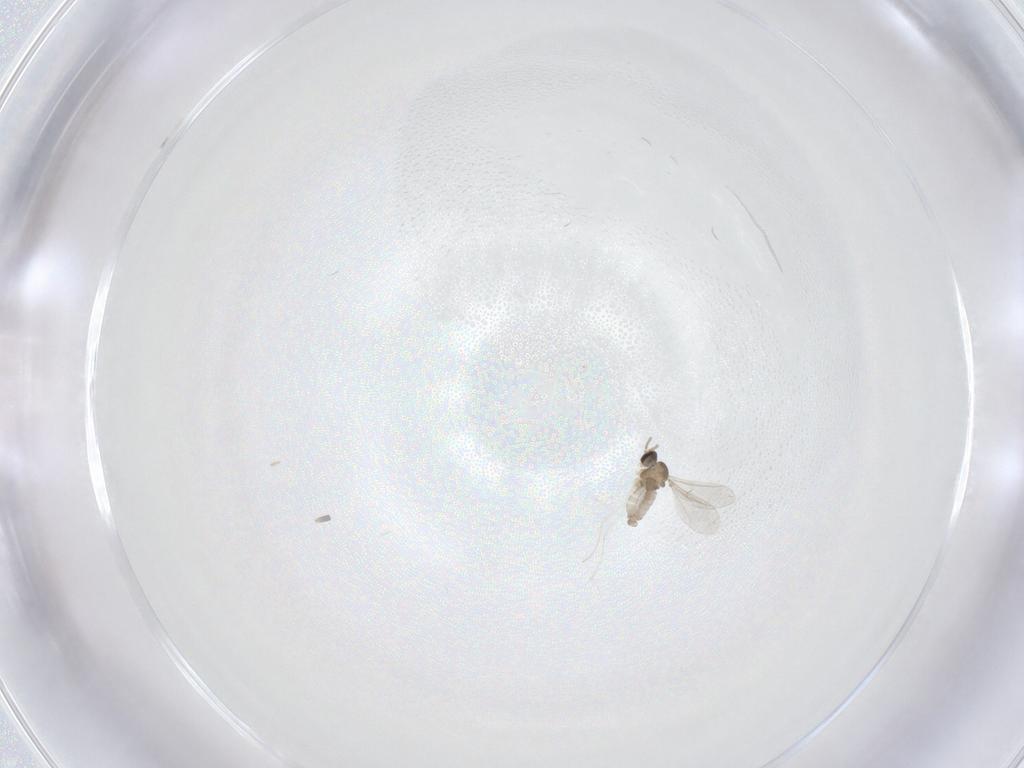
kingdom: Animalia
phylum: Arthropoda
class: Insecta
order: Diptera
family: Cecidomyiidae
